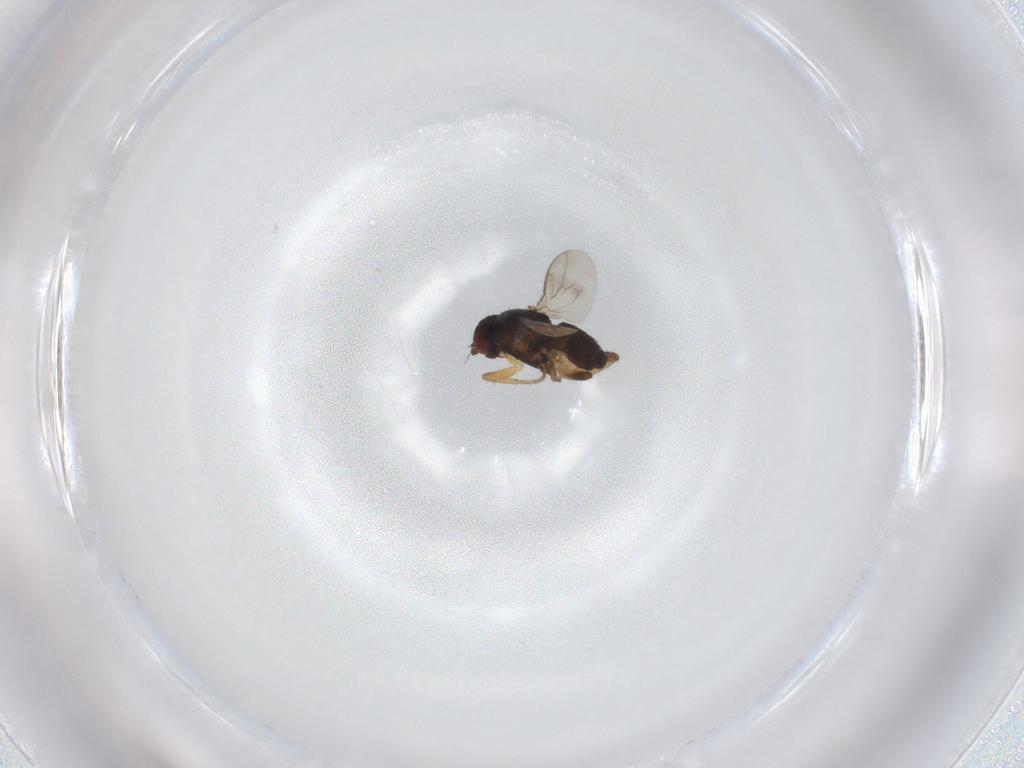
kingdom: Animalia
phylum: Arthropoda
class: Insecta
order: Diptera
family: Sphaeroceridae
